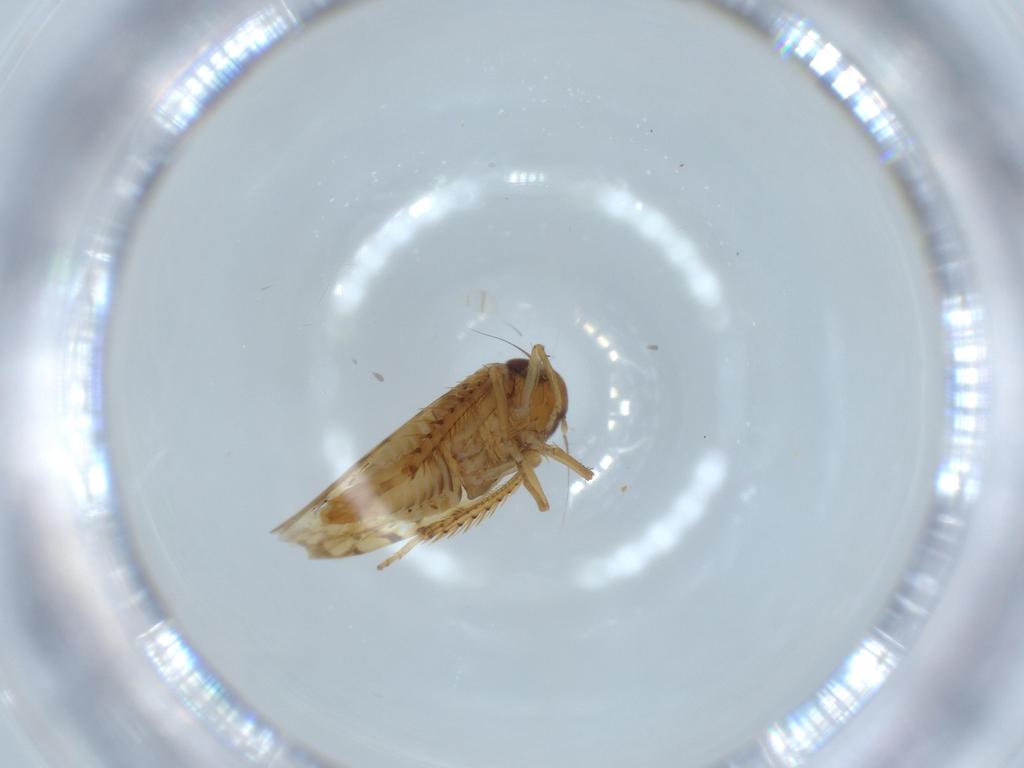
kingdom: Animalia
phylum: Arthropoda
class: Insecta
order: Hemiptera
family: Cicadellidae
